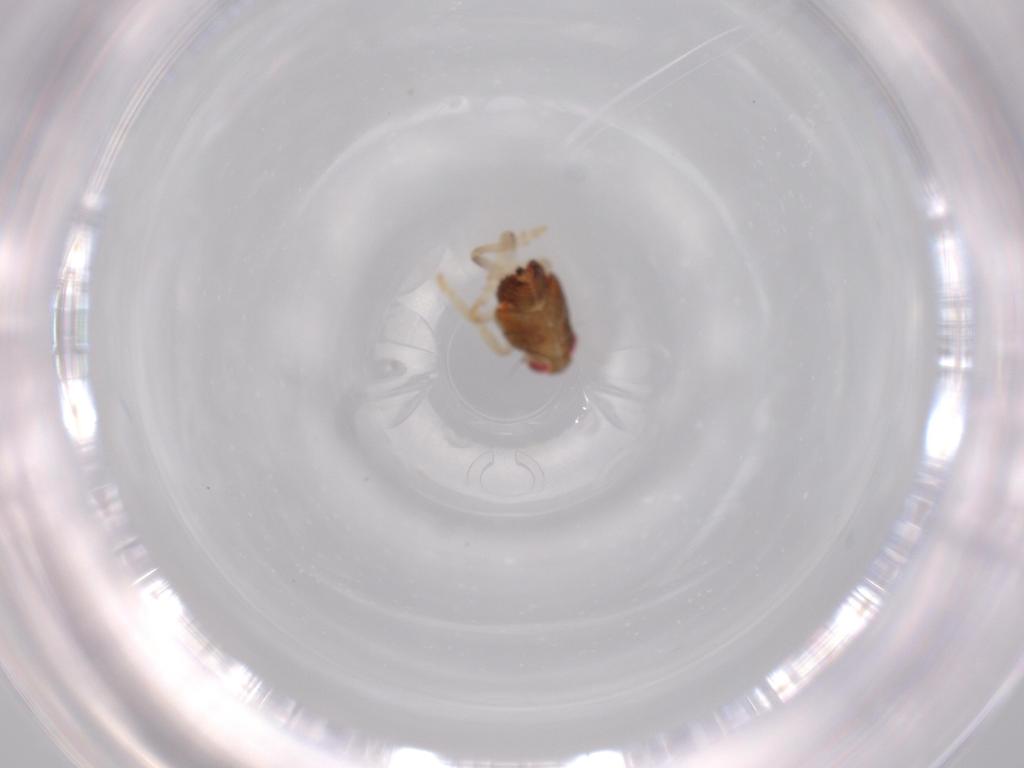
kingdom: Animalia
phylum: Arthropoda
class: Insecta
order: Hemiptera
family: Issidae
